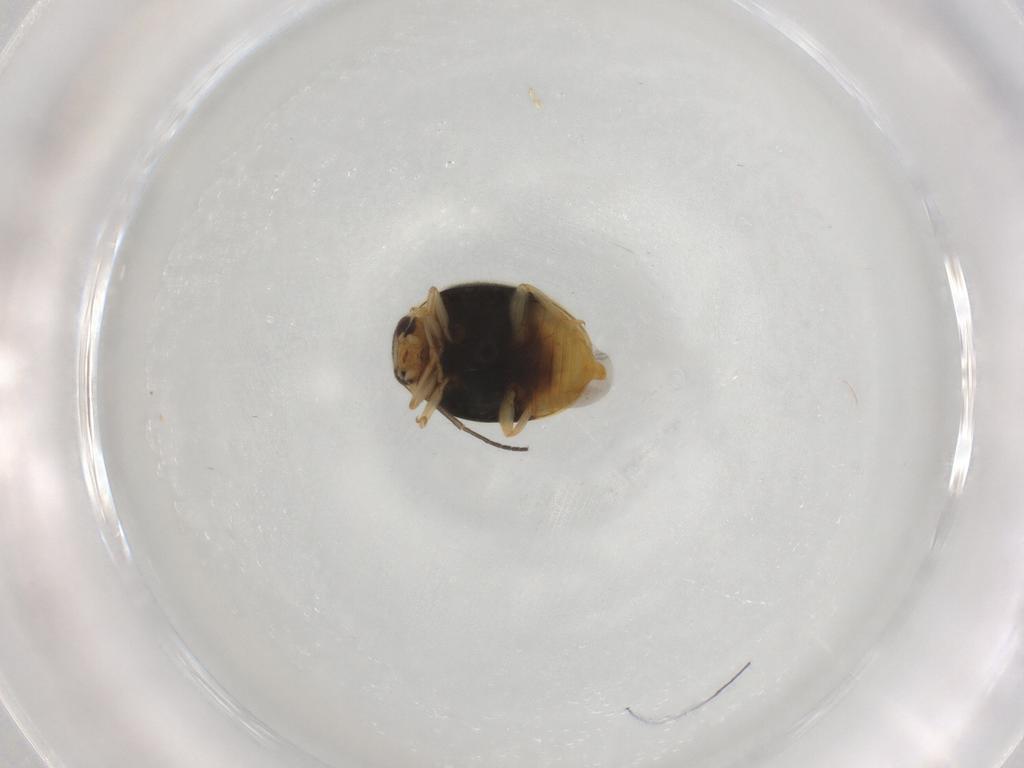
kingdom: Animalia
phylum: Arthropoda
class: Insecta
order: Coleoptera
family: Coccinellidae
